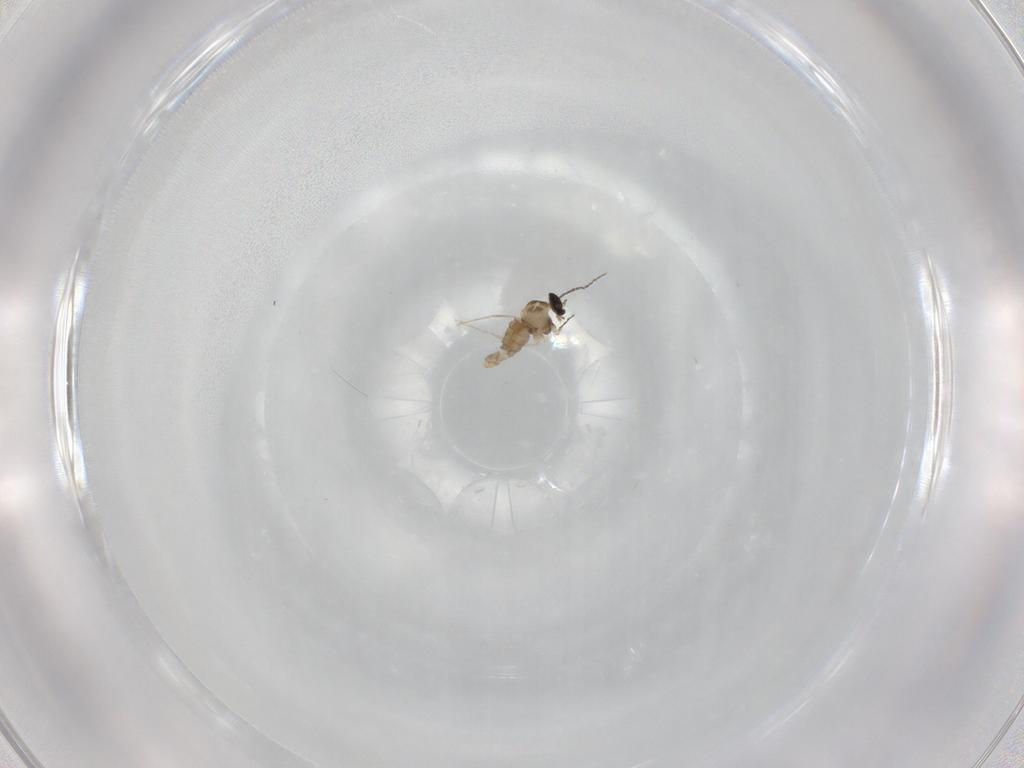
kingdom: Animalia
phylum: Arthropoda
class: Insecta
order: Diptera
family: Cecidomyiidae
